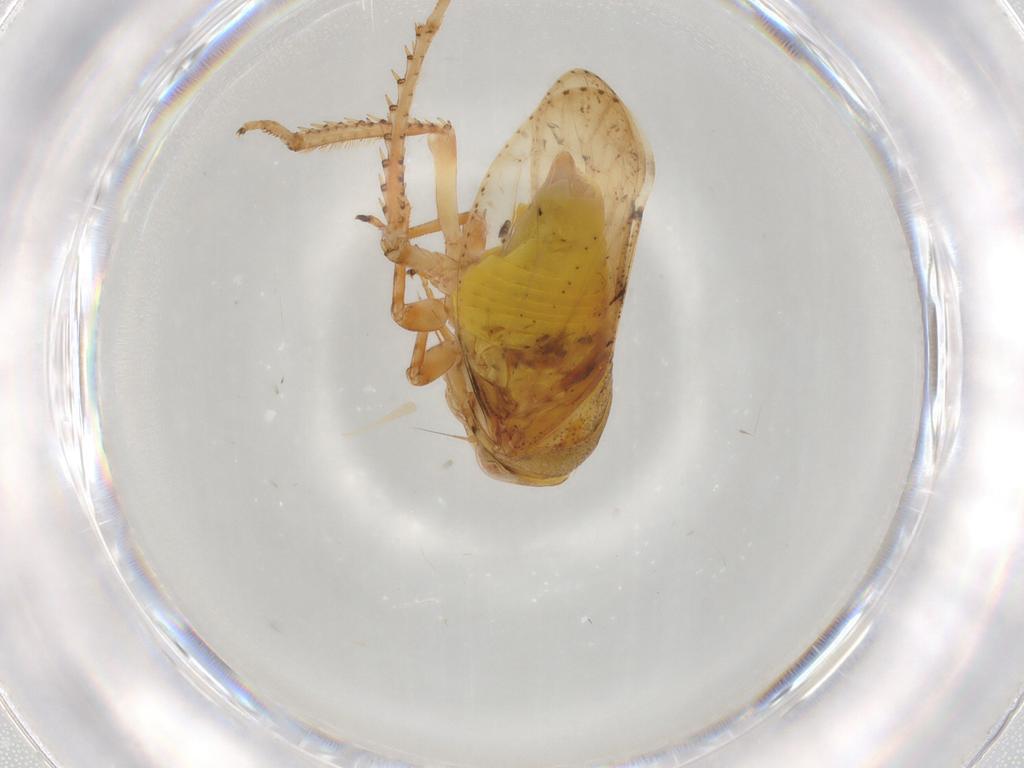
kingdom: Animalia
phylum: Arthropoda
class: Insecta
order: Hemiptera
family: Cicadellidae
